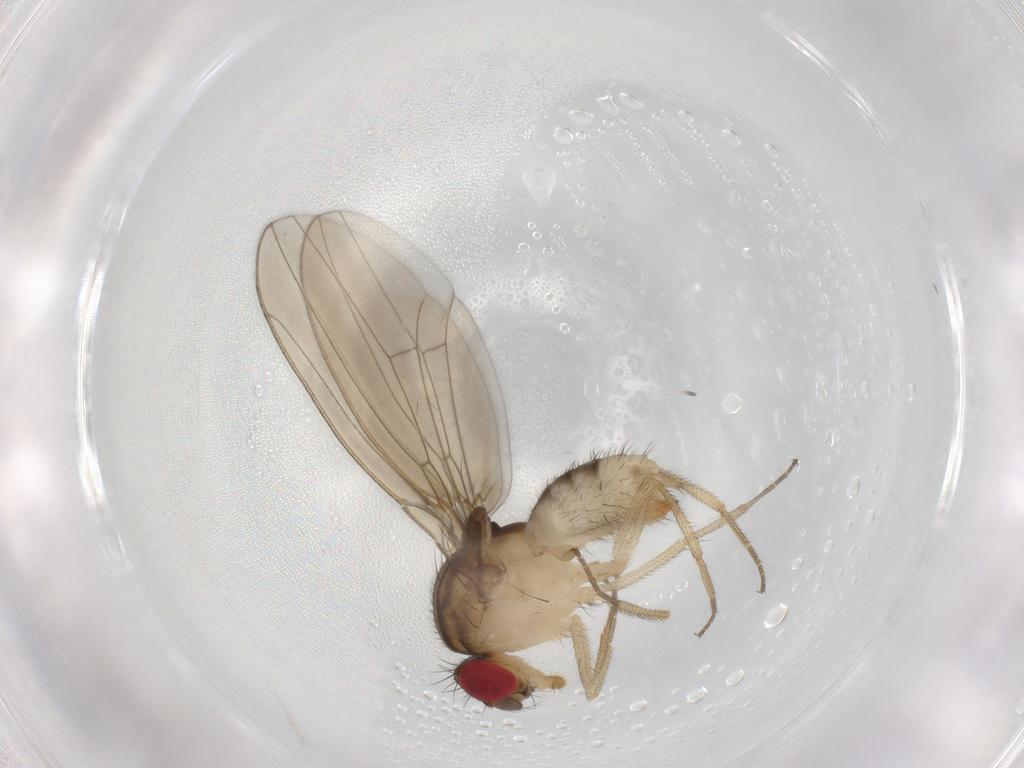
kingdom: Animalia
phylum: Arthropoda
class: Insecta
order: Diptera
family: Drosophilidae
